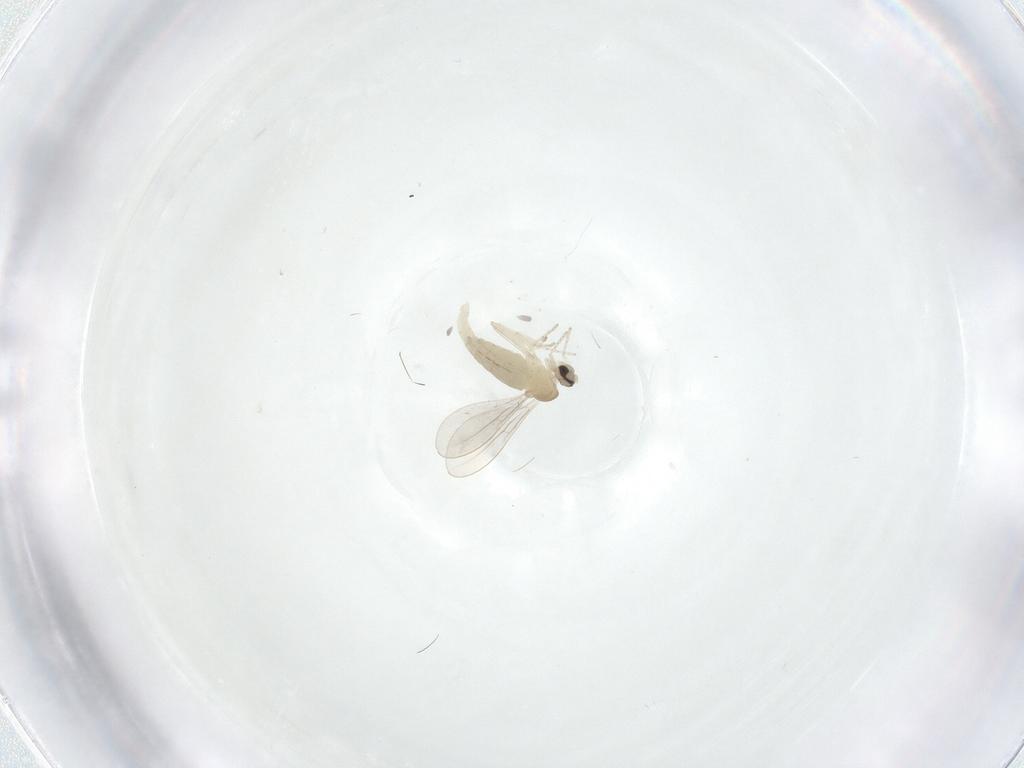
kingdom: Animalia
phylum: Arthropoda
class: Insecta
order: Diptera
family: Cecidomyiidae
